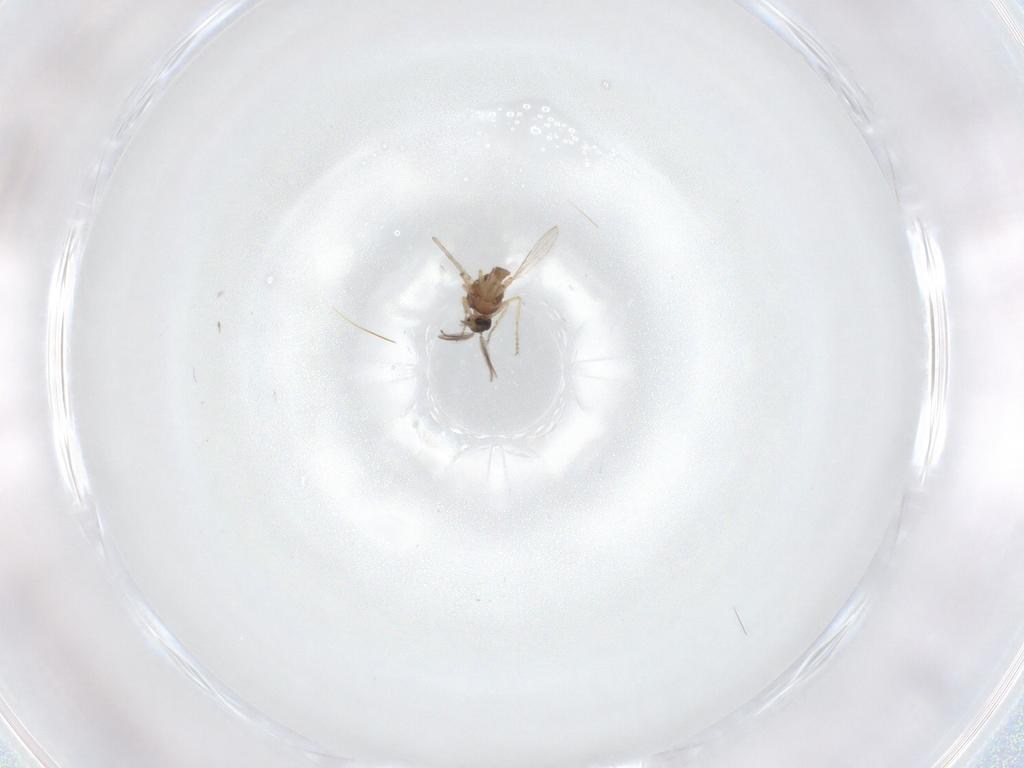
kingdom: Animalia
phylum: Arthropoda
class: Insecta
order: Diptera
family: Ceratopogonidae
